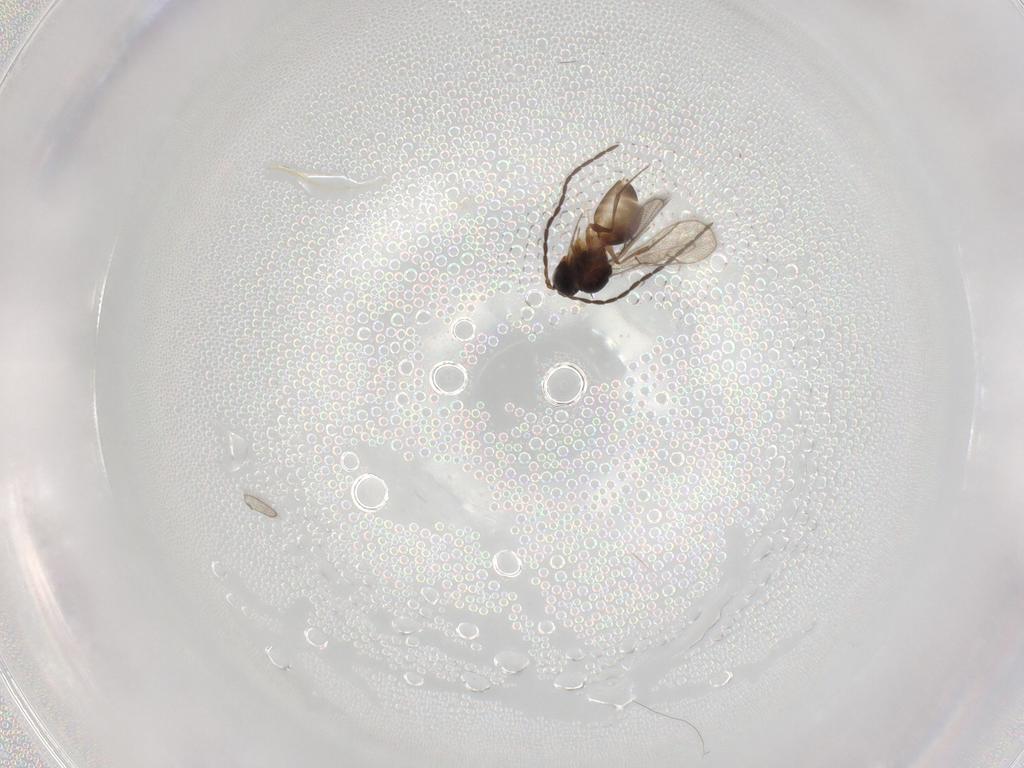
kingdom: Animalia
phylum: Arthropoda
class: Insecta
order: Hymenoptera
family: Figitidae
